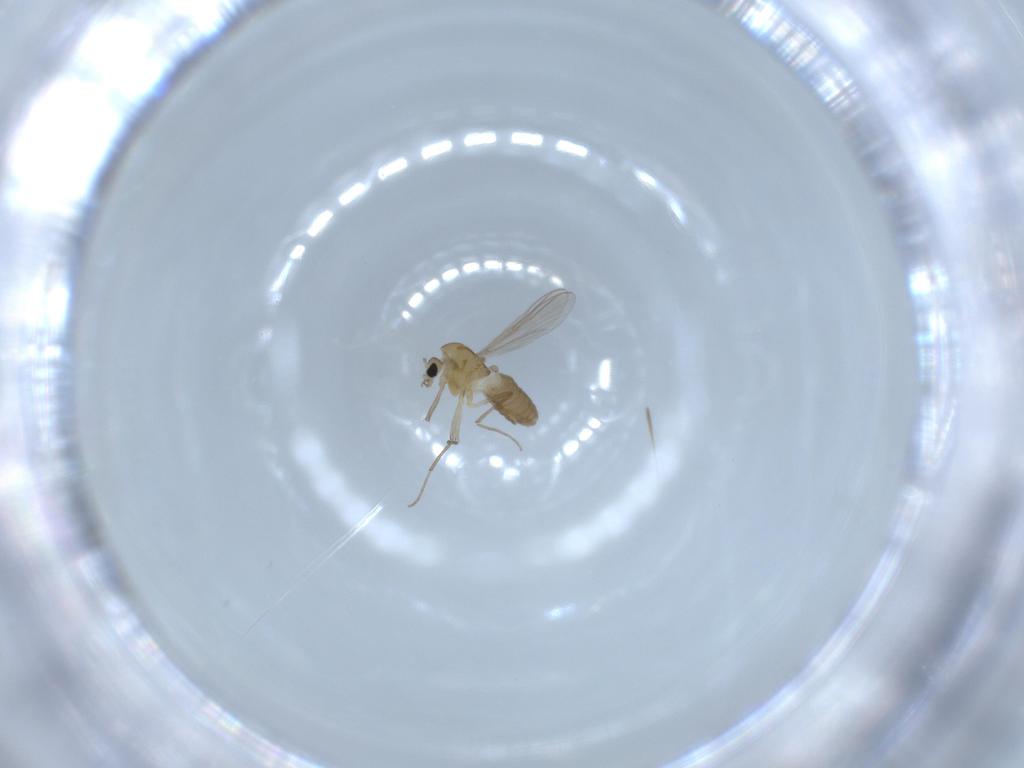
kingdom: Animalia
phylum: Arthropoda
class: Insecta
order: Diptera
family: Chironomidae
